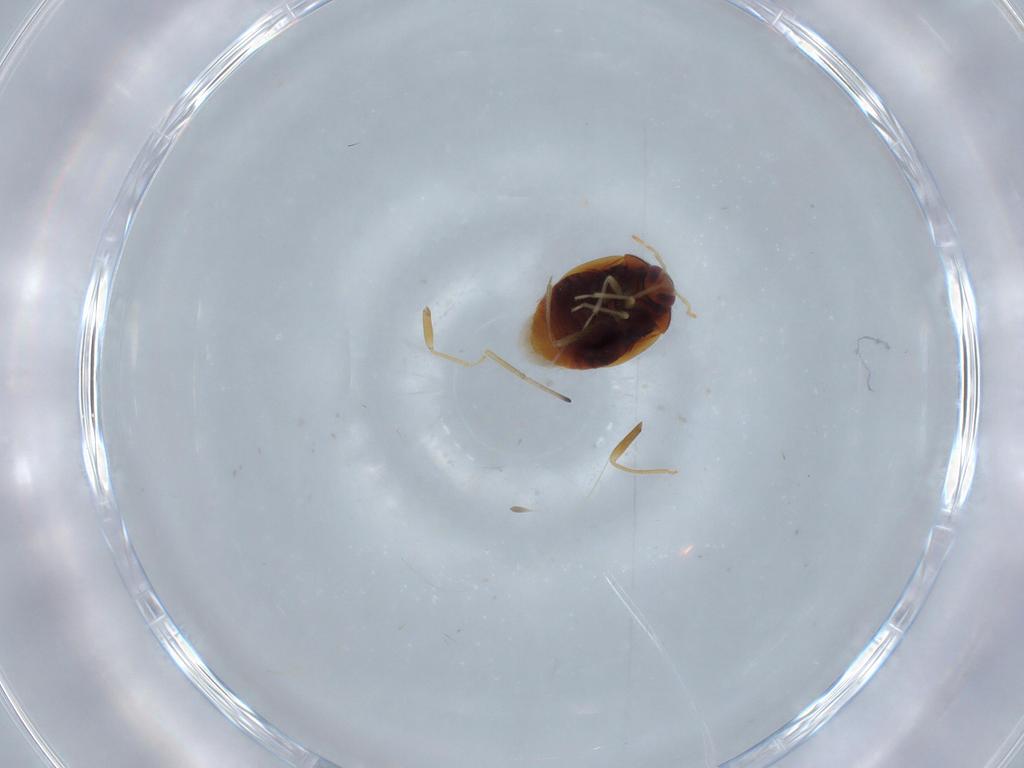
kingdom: Animalia
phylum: Arthropoda
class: Insecta
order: Hemiptera
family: Anthocoridae
